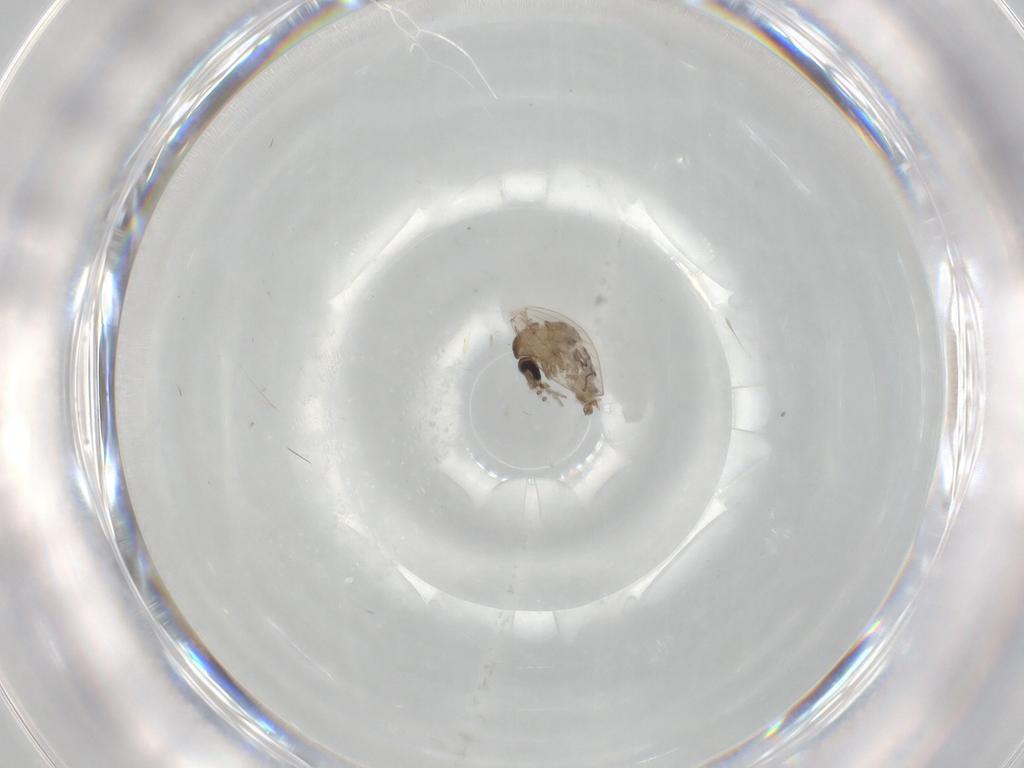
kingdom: Animalia
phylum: Arthropoda
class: Insecta
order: Diptera
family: Psychodidae
